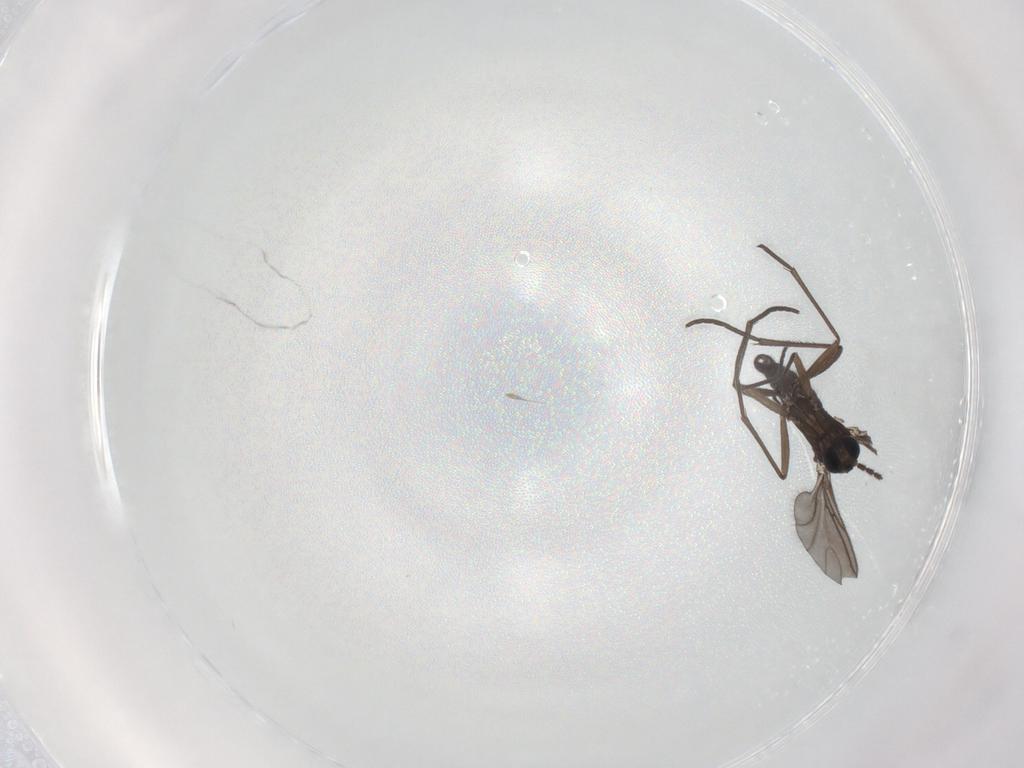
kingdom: Animalia
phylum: Arthropoda
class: Insecta
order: Diptera
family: Sciaridae
